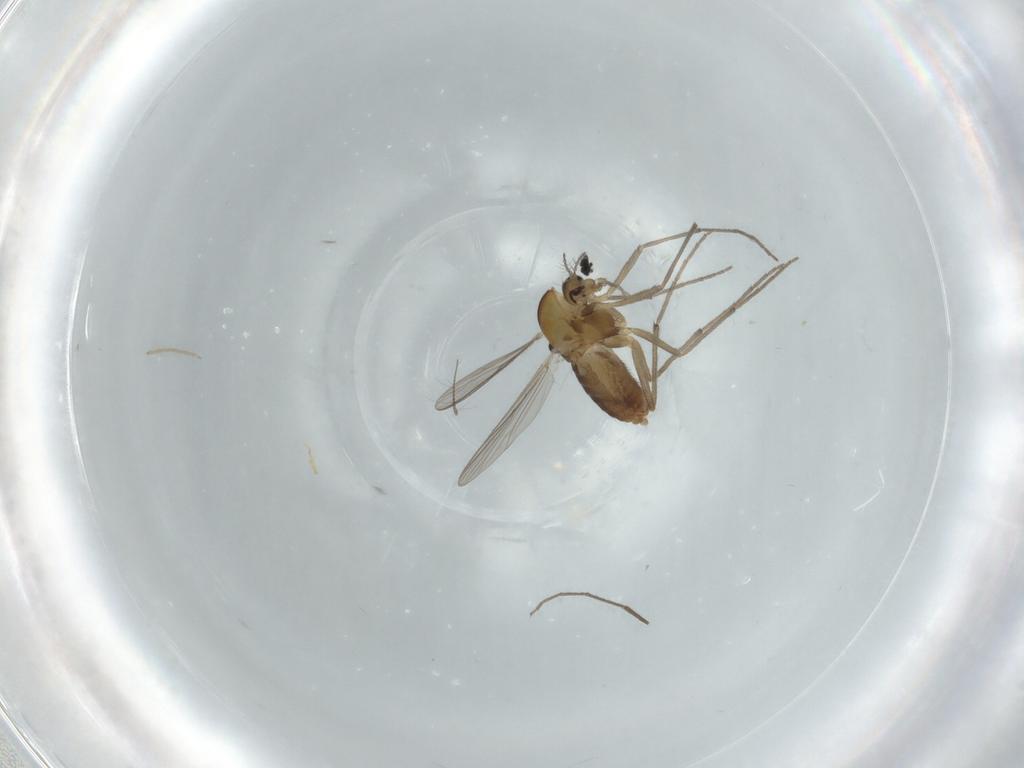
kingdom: Animalia
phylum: Arthropoda
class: Insecta
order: Diptera
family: Chironomidae
